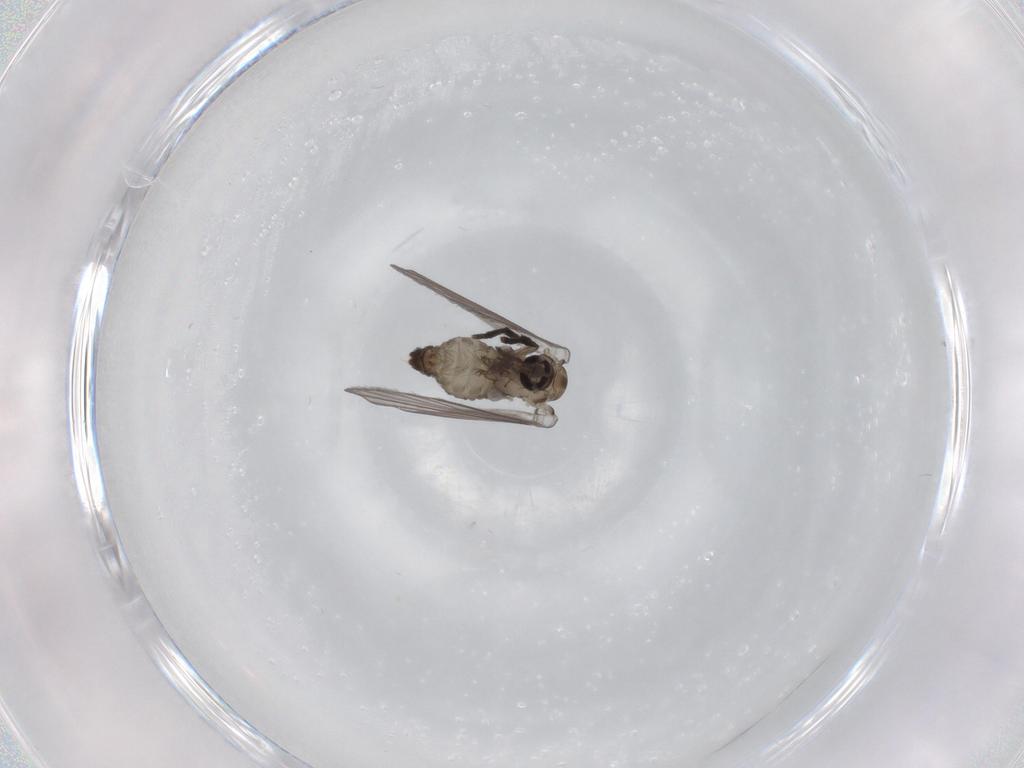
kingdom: Animalia
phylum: Arthropoda
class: Insecta
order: Diptera
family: Psychodidae
